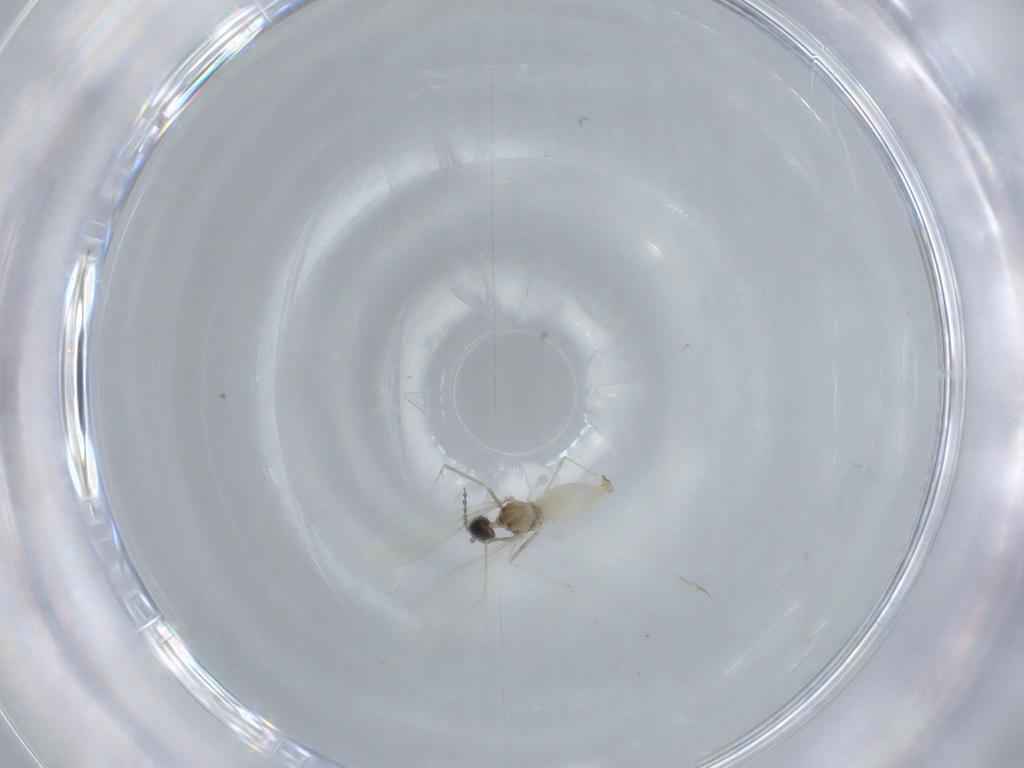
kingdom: Animalia
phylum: Arthropoda
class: Insecta
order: Diptera
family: Cecidomyiidae
